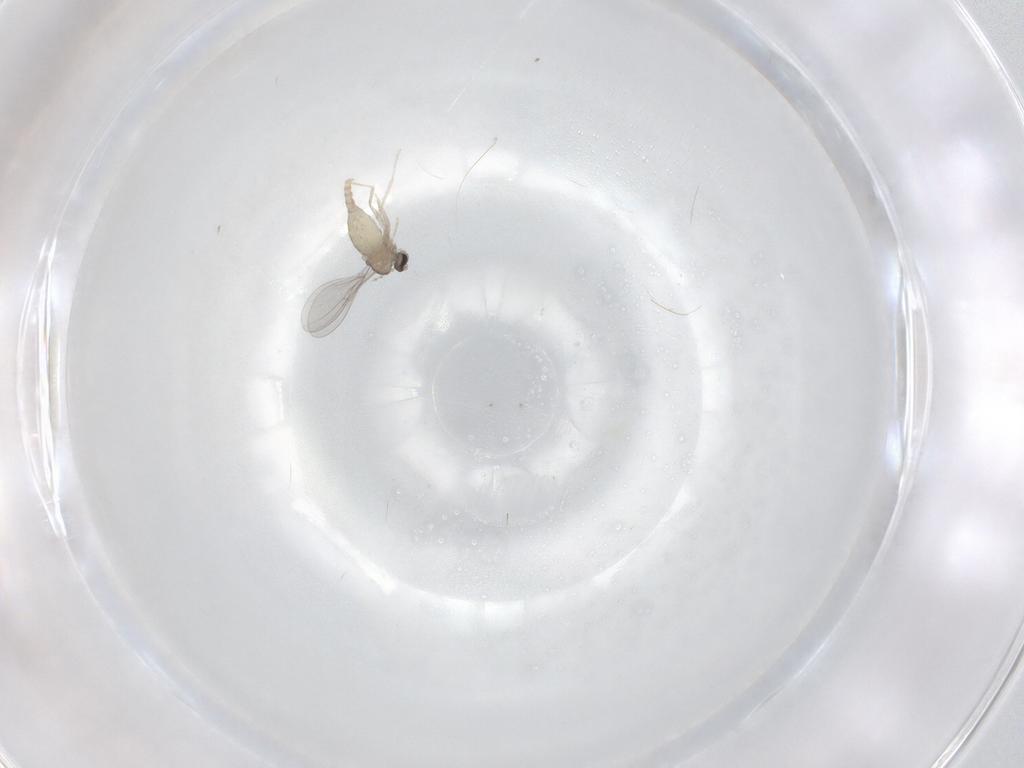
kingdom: Animalia
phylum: Arthropoda
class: Insecta
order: Diptera
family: Cecidomyiidae
